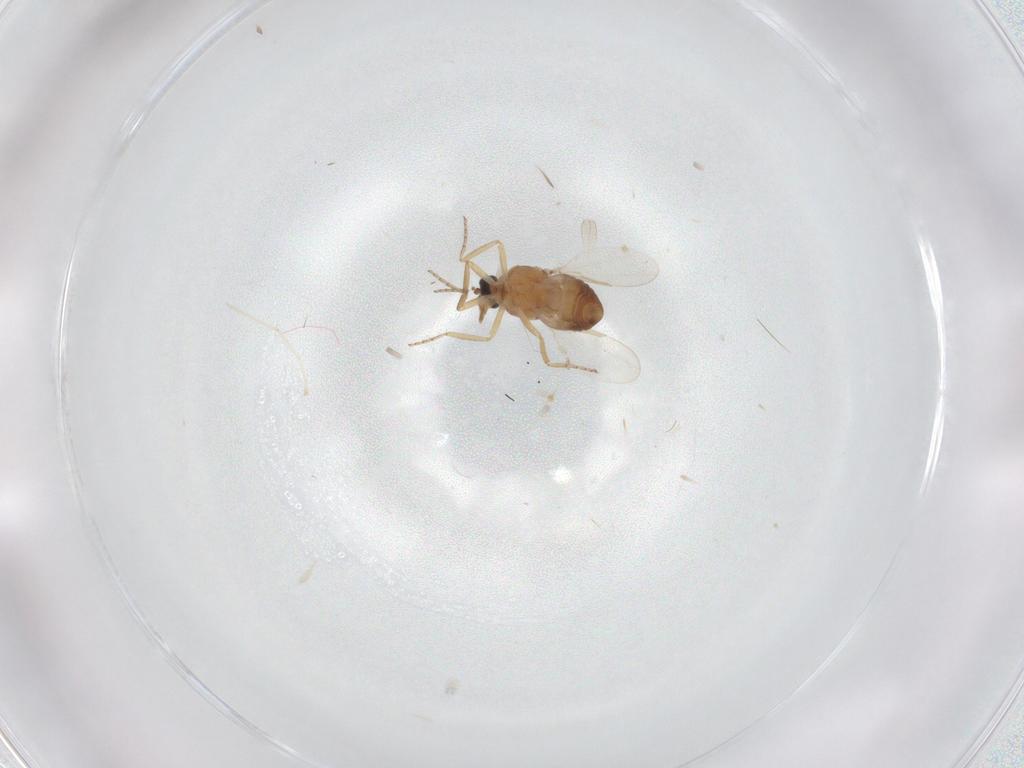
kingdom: Animalia
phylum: Arthropoda
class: Insecta
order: Diptera
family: Ceratopogonidae
